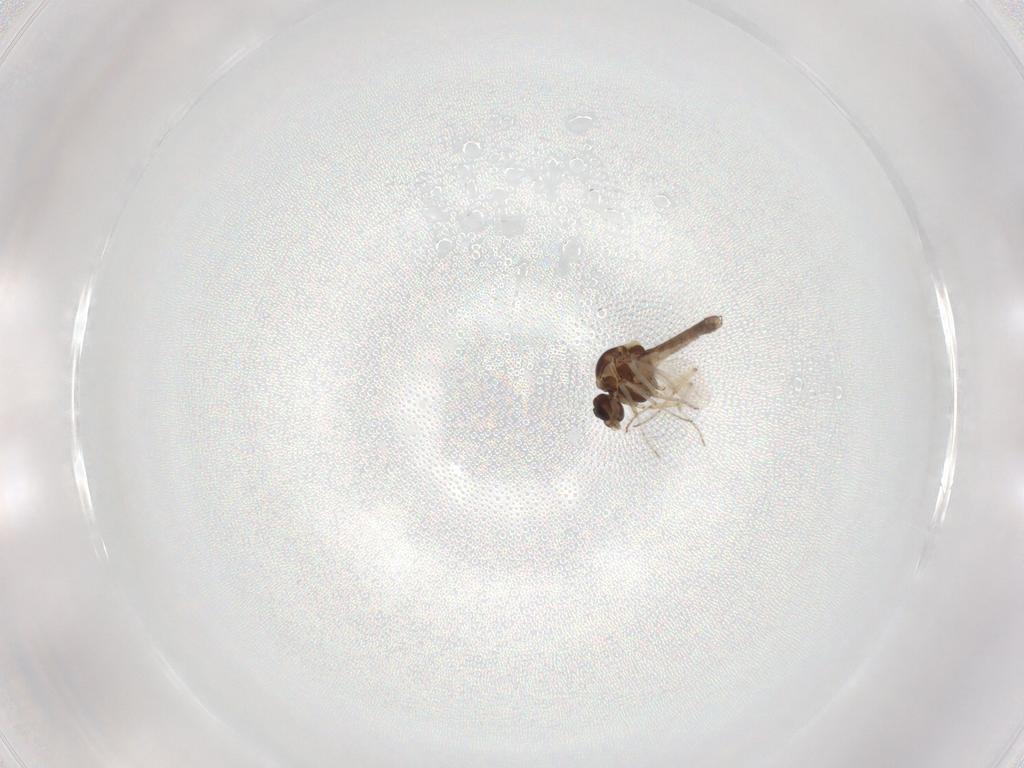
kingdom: Animalia
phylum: Arthropoda
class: Insecta
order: Diptera
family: Ceratopogonidae
